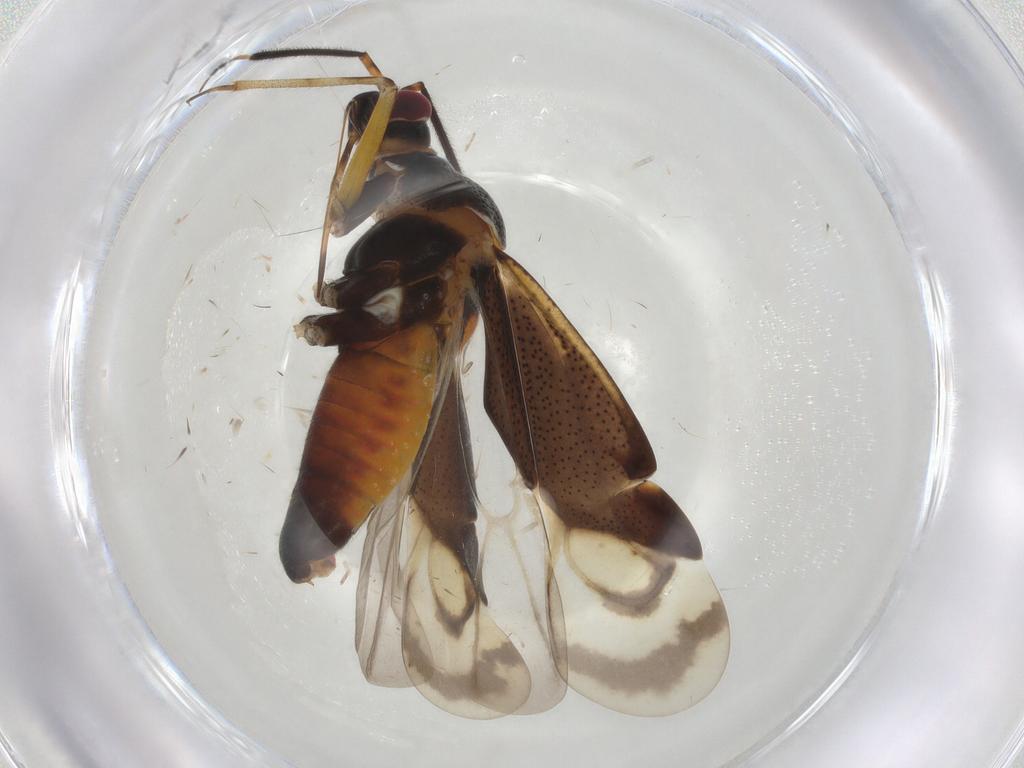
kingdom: Animalia
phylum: Arthropoda
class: Insecta
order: Hemiptera
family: Miridae
